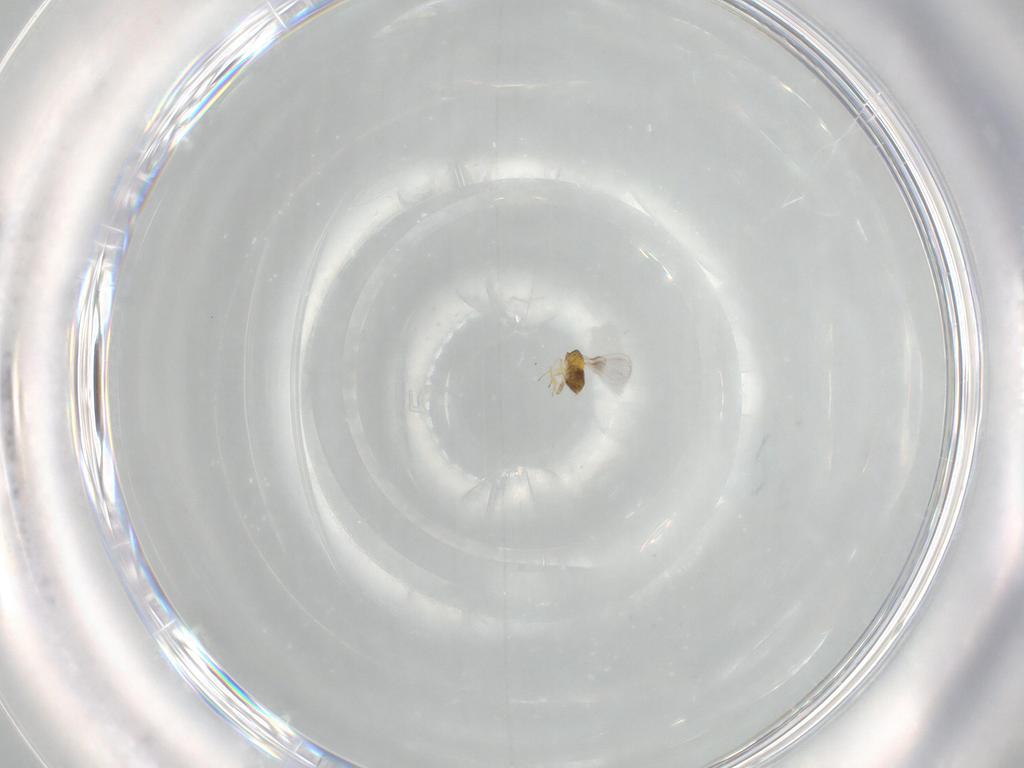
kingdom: Animalia
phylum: Arthropoda
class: Insecta
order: Hymenoptera
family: Trichogrammatidae
